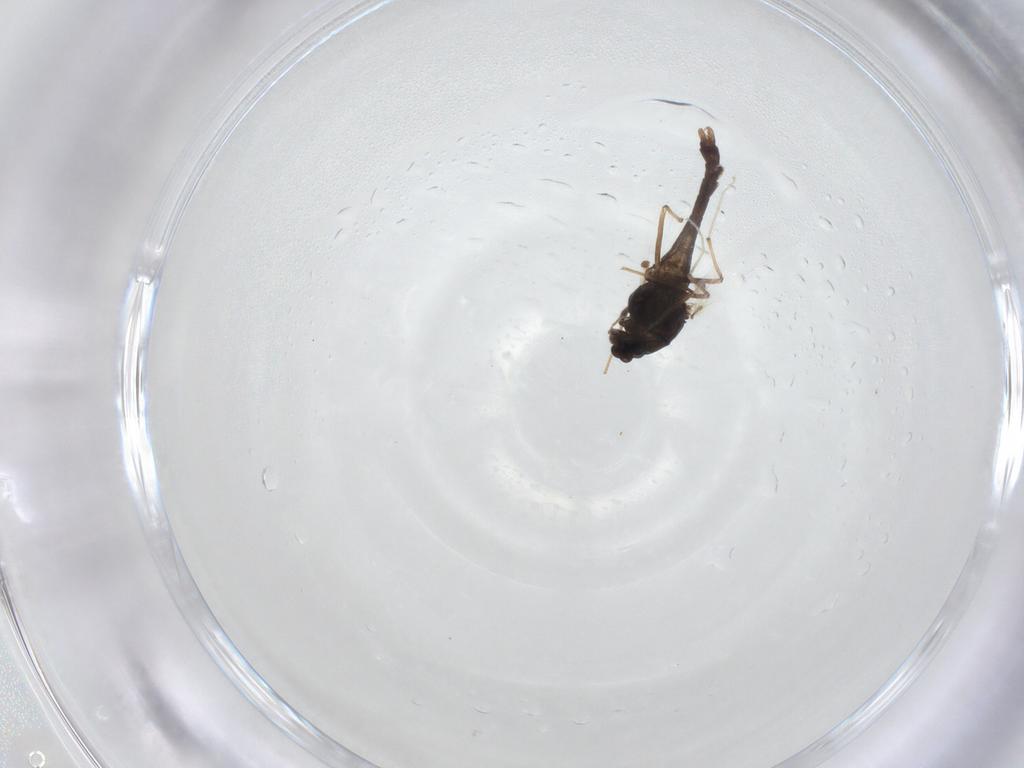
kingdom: Animalia
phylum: Arthropoda
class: Insecta
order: Diptera
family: Chironomidae
